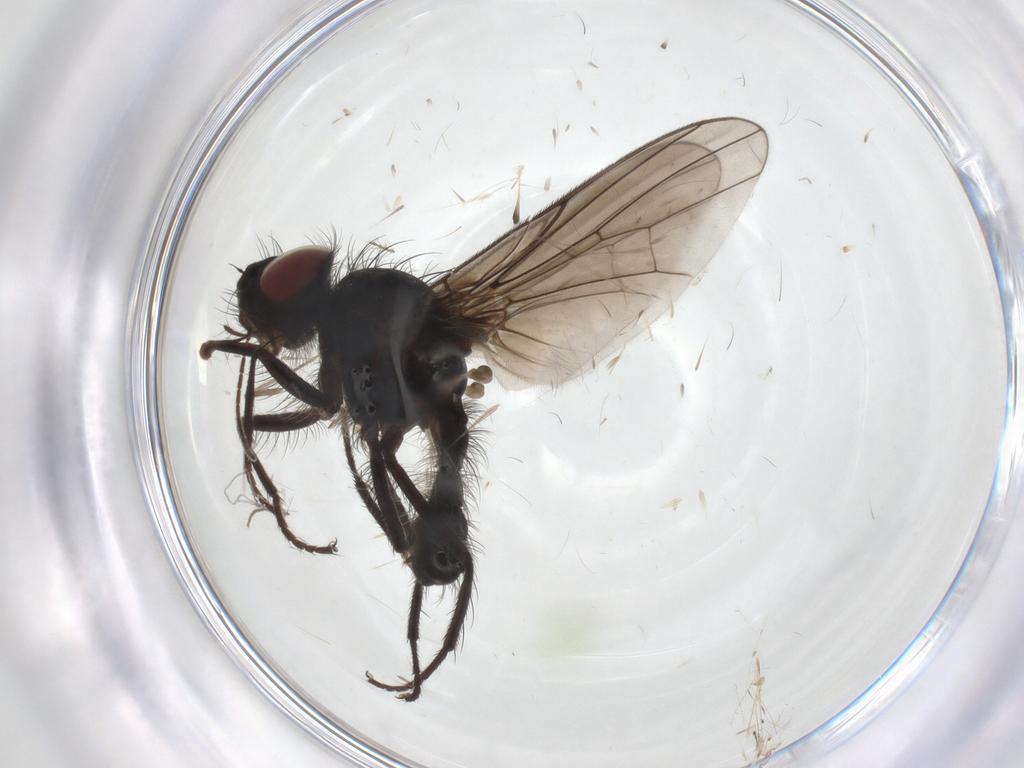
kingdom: Animalia
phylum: Arthropoda
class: Insecta
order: Diptera
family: Anthomyiidae
